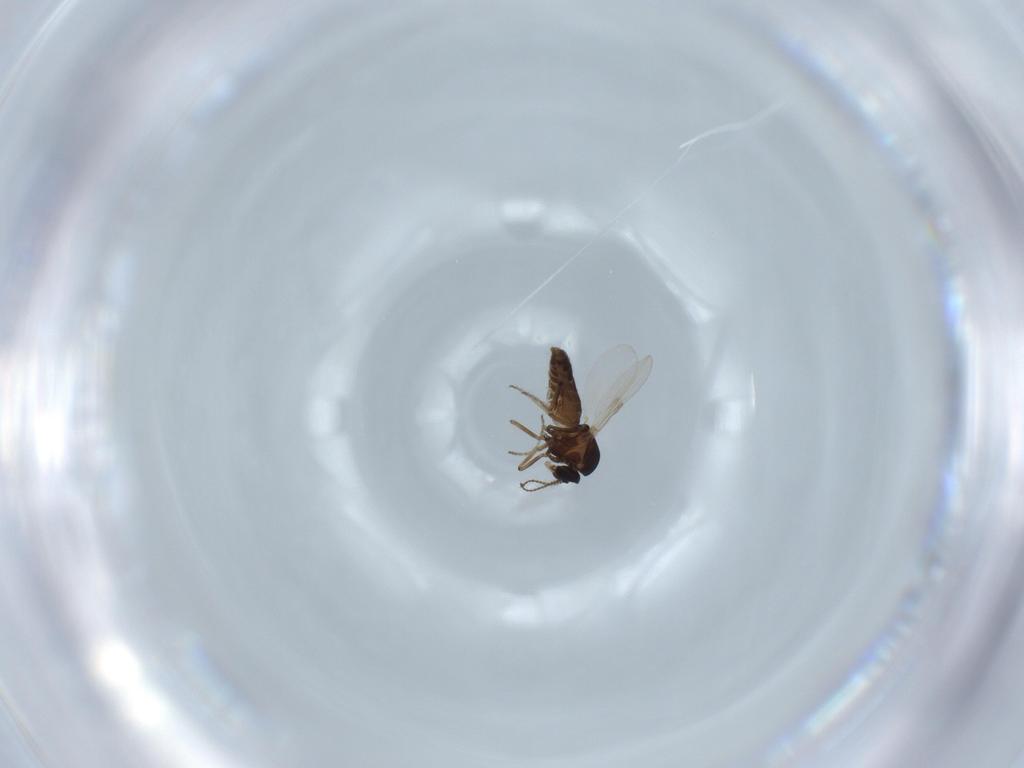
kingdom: Animalia
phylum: Arthropoda
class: Insecta
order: Diptera
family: Ceratopogonidae
